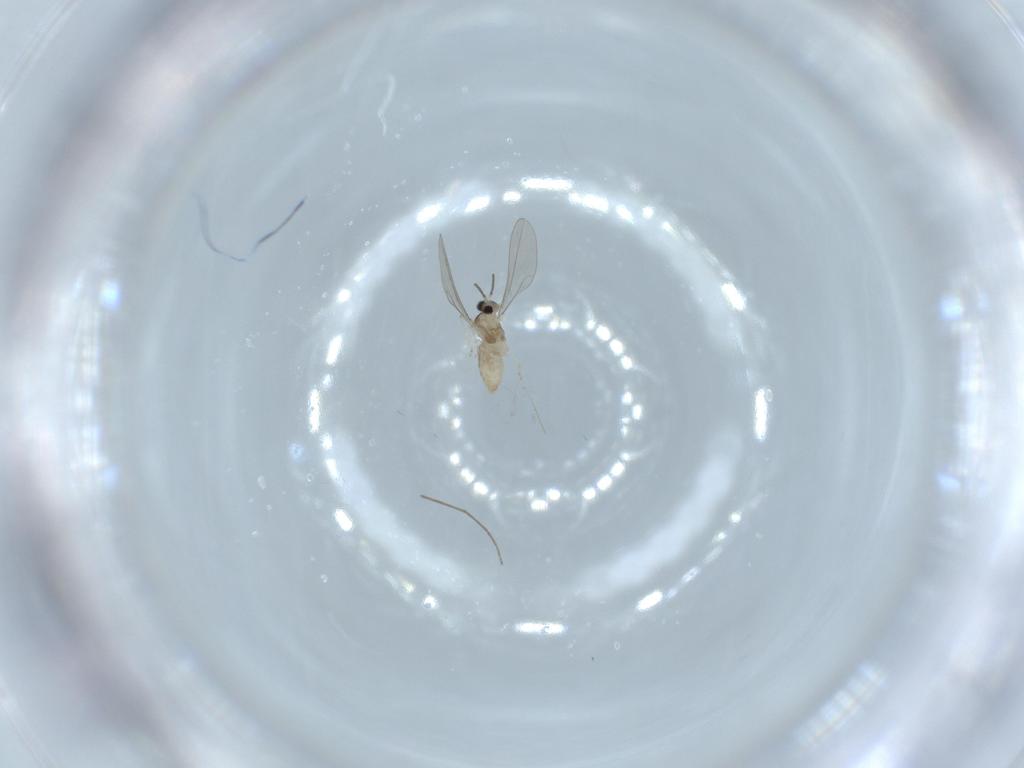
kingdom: Animalia
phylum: Arthropoda
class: Insecta
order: Diptera
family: Cecidomyiidae
